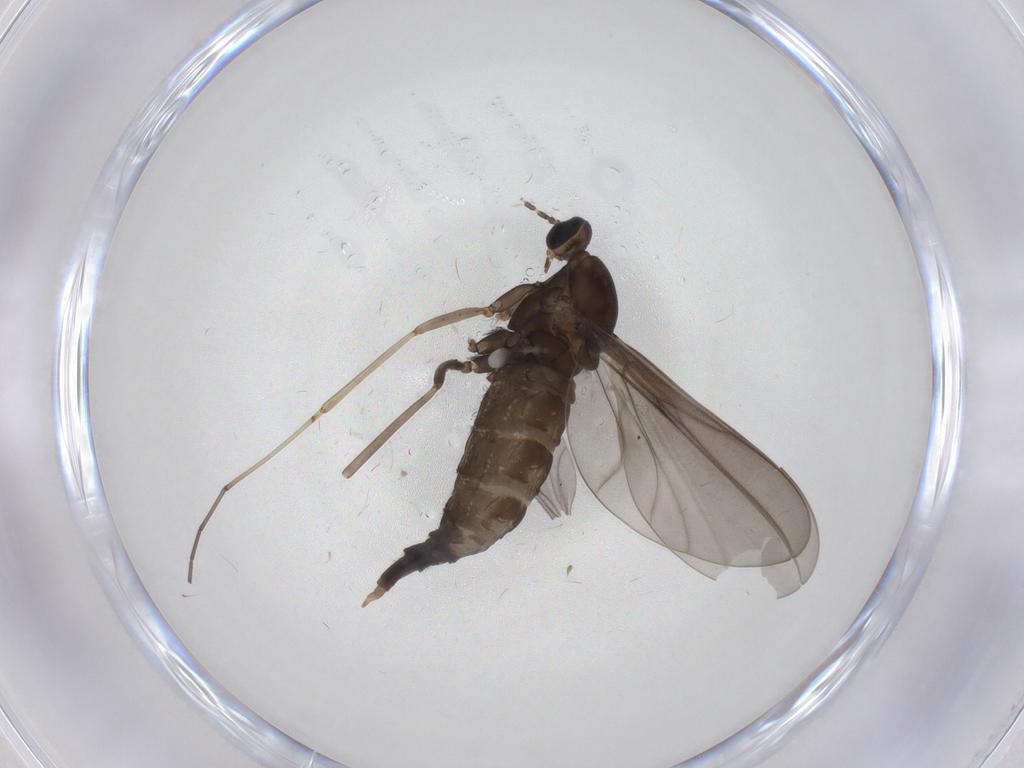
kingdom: Animalia
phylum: Arthropoda
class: Insecta
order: Diptera
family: Cecidomyiidae
